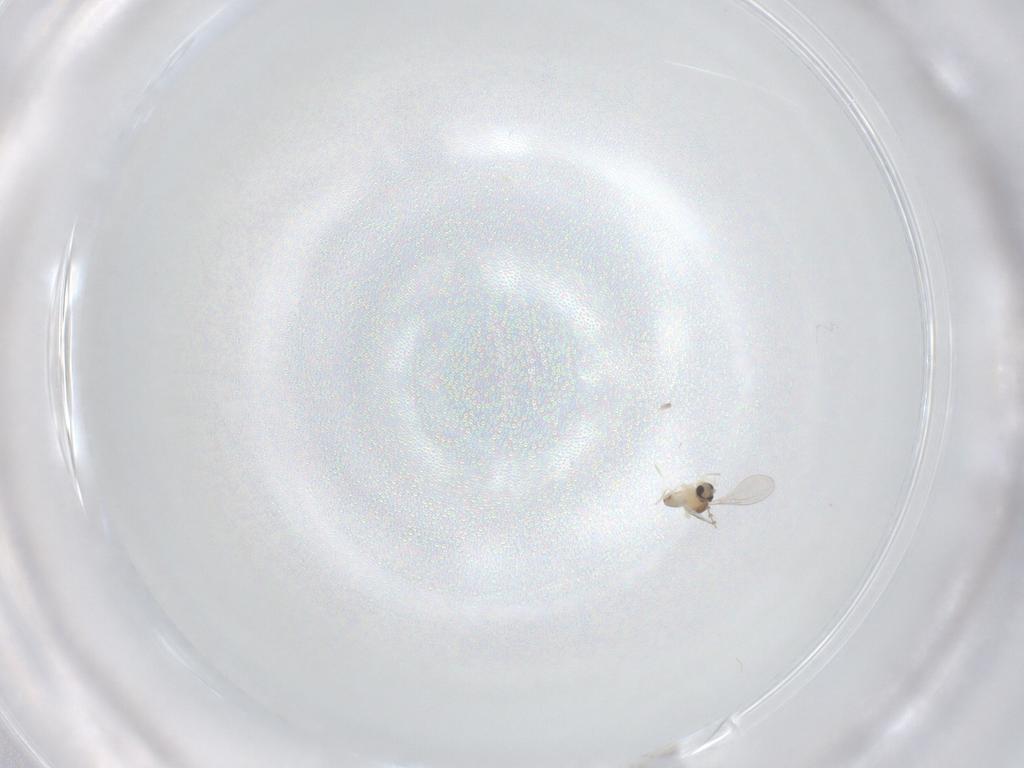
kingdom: Animalia
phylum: Arthropoda
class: Insecta
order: Diptera
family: Cecidomyiidae
